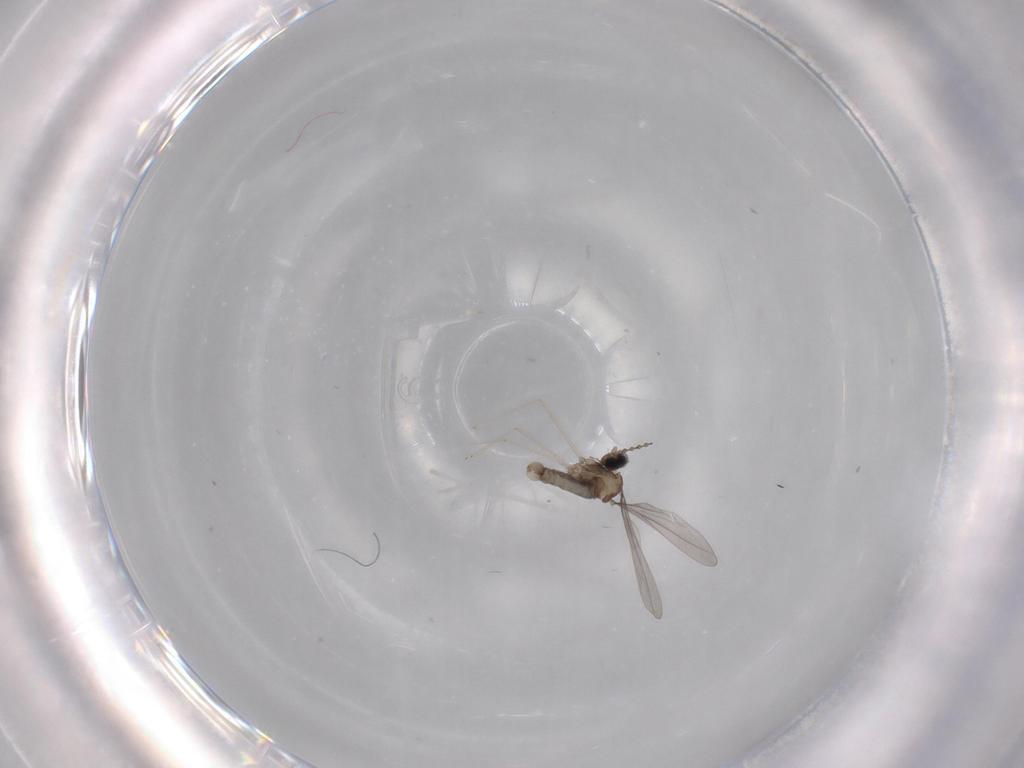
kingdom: Animalia
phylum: Arthropoda
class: Insecta
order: Diptera
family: Cecidomyiidae
